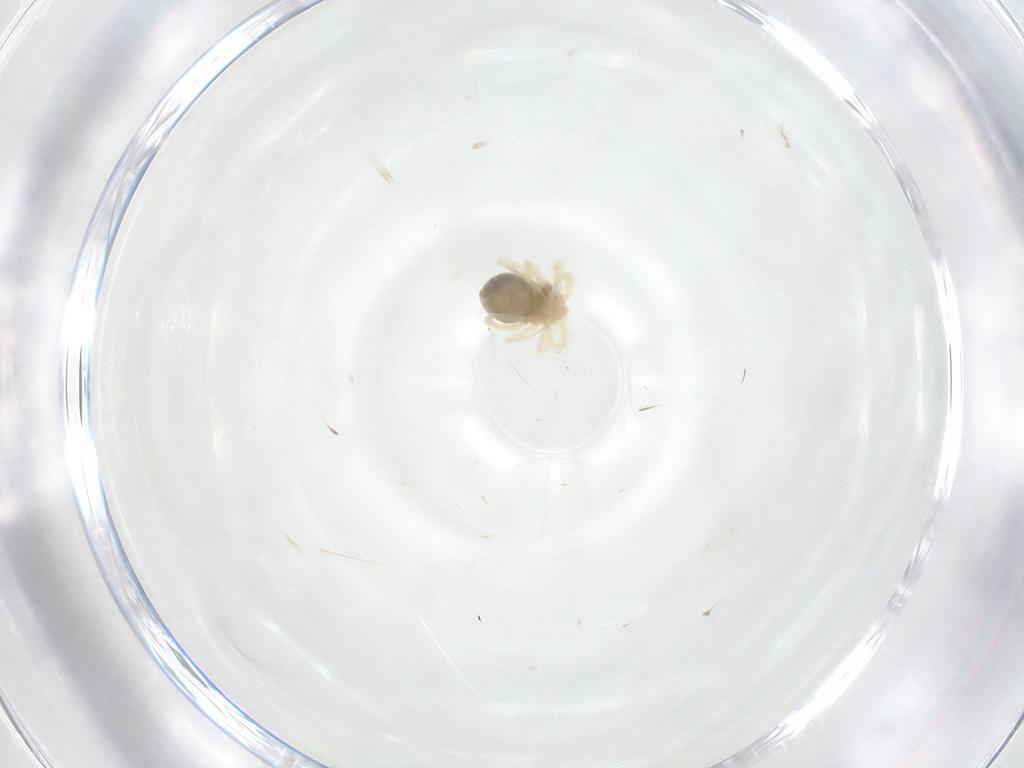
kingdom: Animalia
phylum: Arthropoda
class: Arachnida
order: Trombidiformes
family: Anystidae
